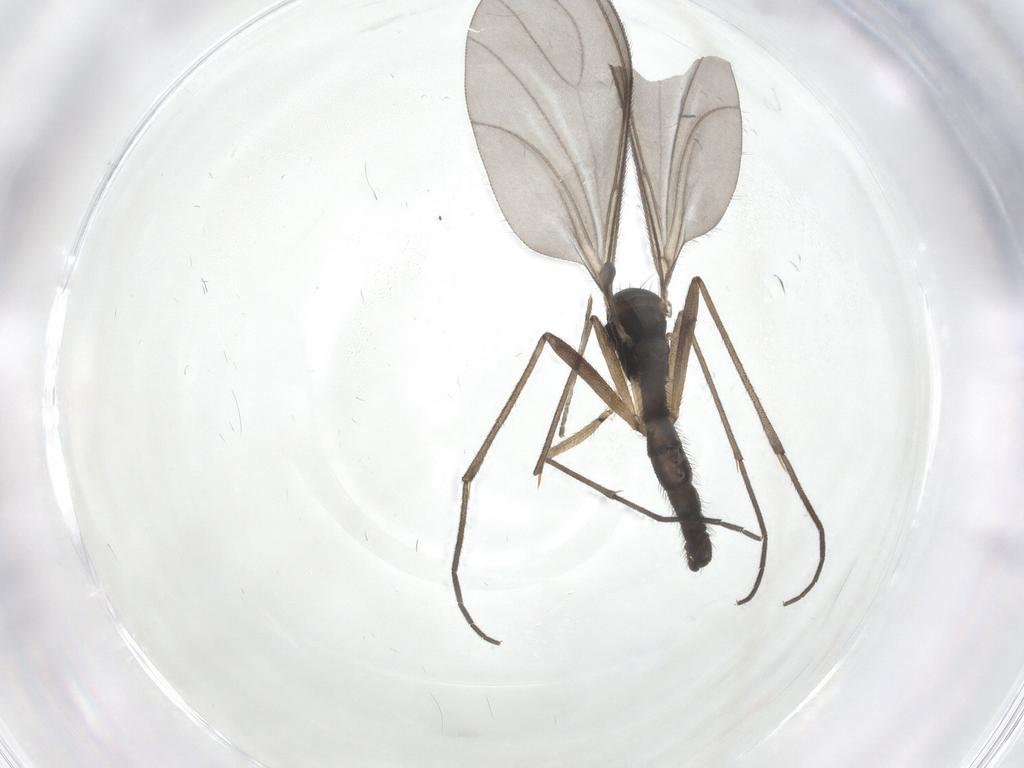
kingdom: Animalia
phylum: Arthropoda
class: Insecta
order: Diptera
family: Sciaridae
